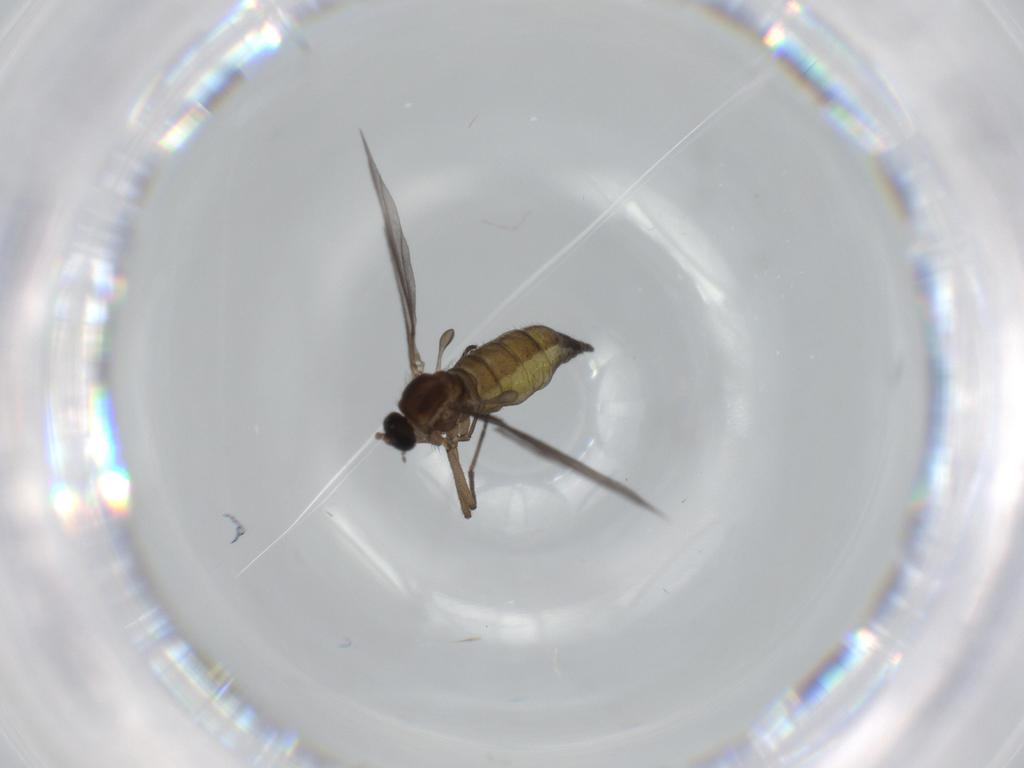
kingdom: Animalia
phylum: Arthropoda
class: Insecta
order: Diptera
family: Sciaridae
